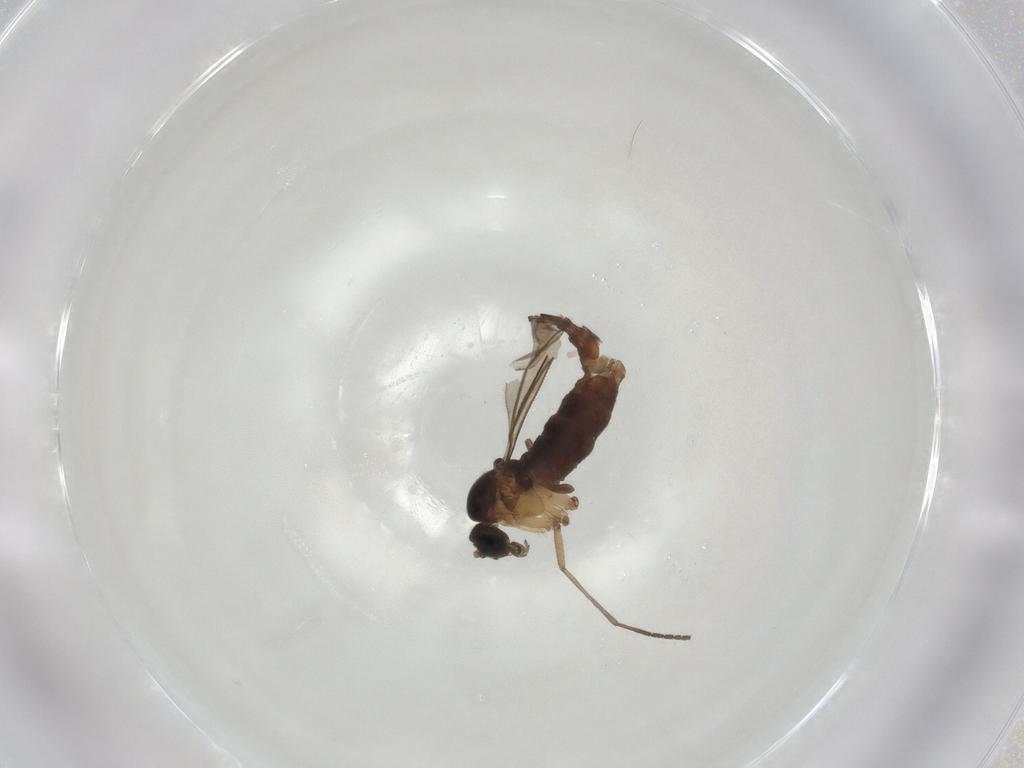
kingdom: Animalia
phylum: Arthropoda
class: Insecta
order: Diptera
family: Sciaridae
